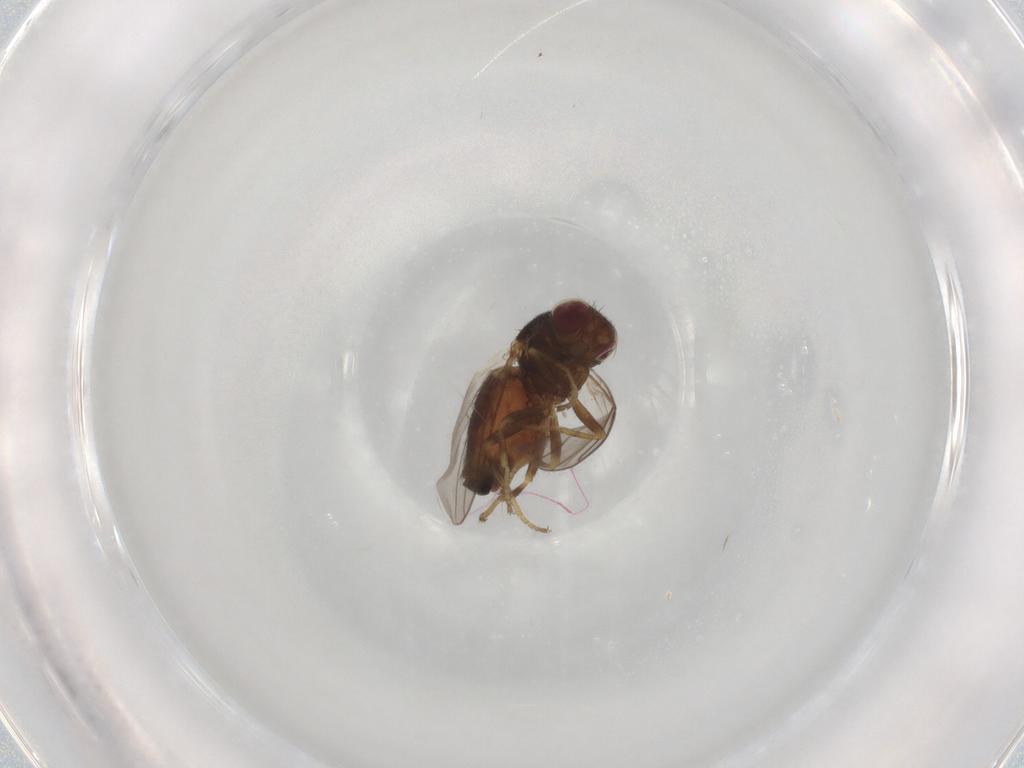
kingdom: Animalia
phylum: Arthropoda
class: Insecta
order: Diptera
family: Chloropidae
